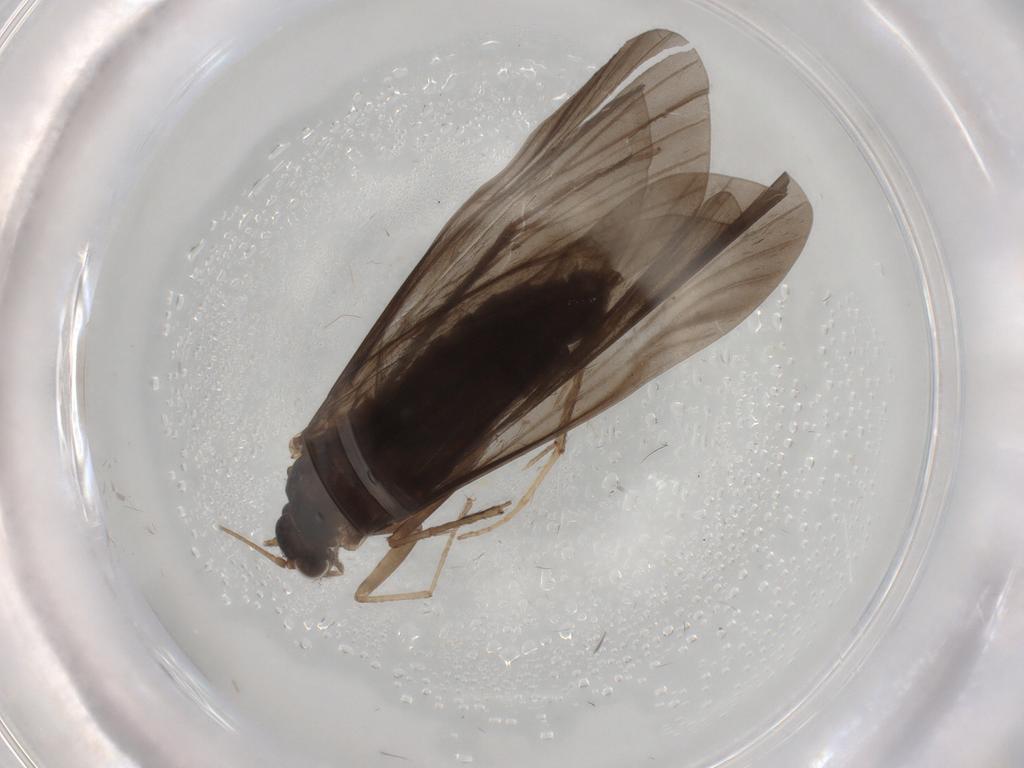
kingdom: Animalia
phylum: Arthropoda
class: Insecta
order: Trichoptera
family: Hydropsychidae
